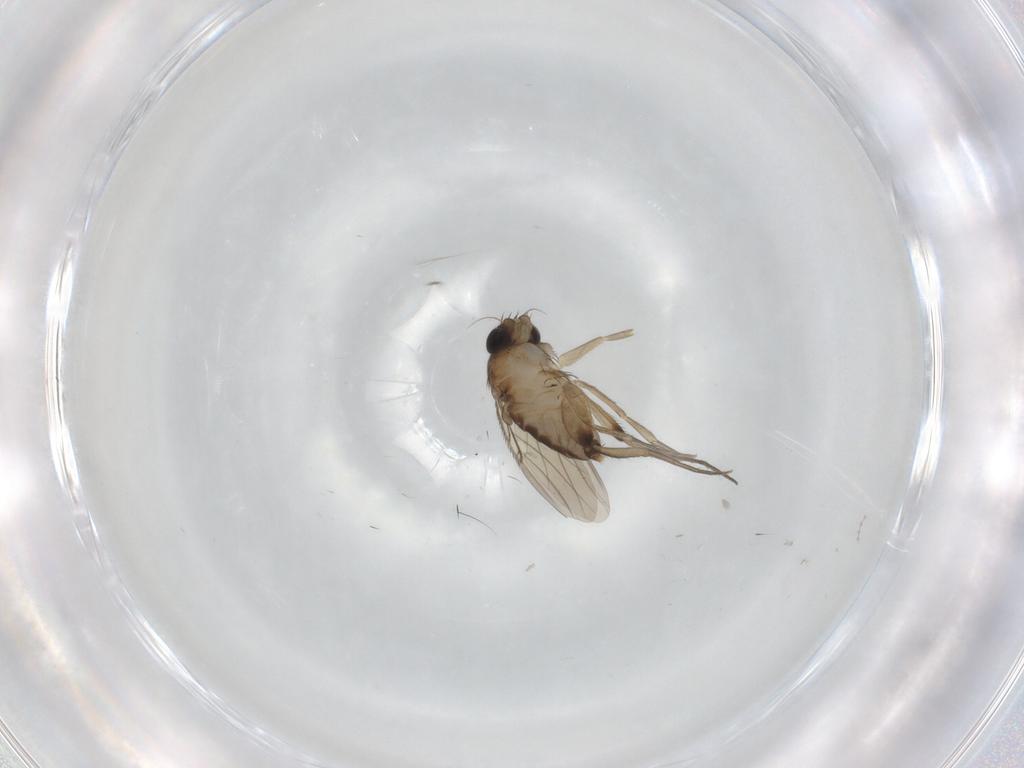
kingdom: Animalia
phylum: Arthropoda
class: Insecta
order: Diptera
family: Phoridae
